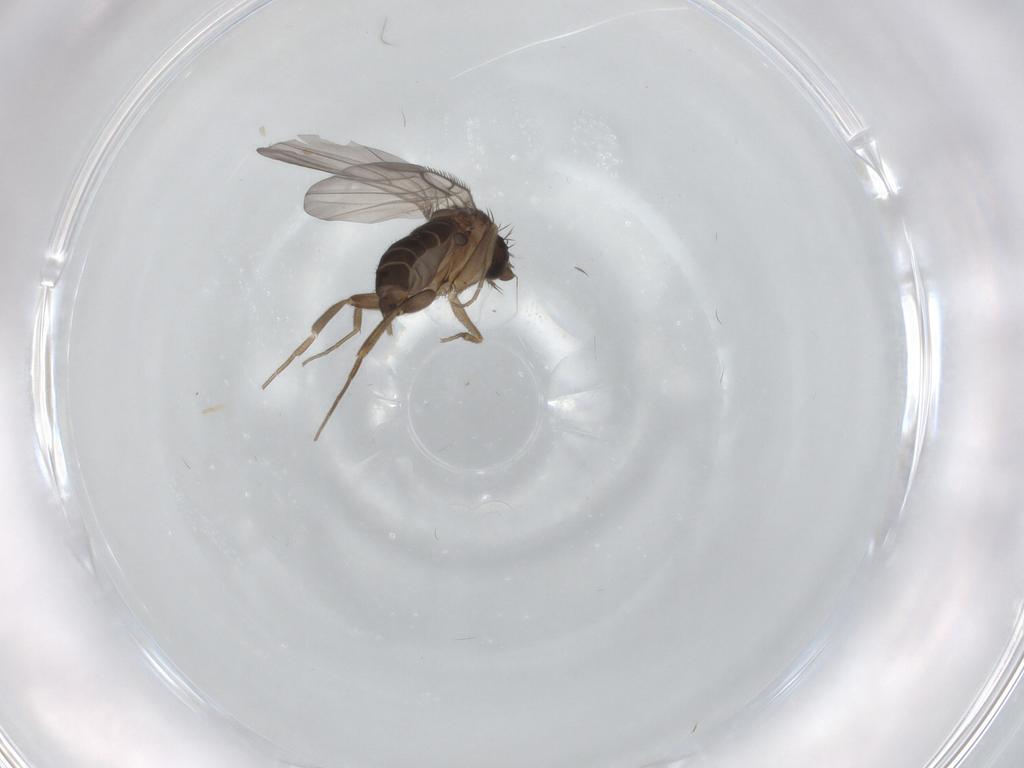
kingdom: Animalia
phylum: Arthropoda
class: Insecta
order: Diptera
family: Phoridae
